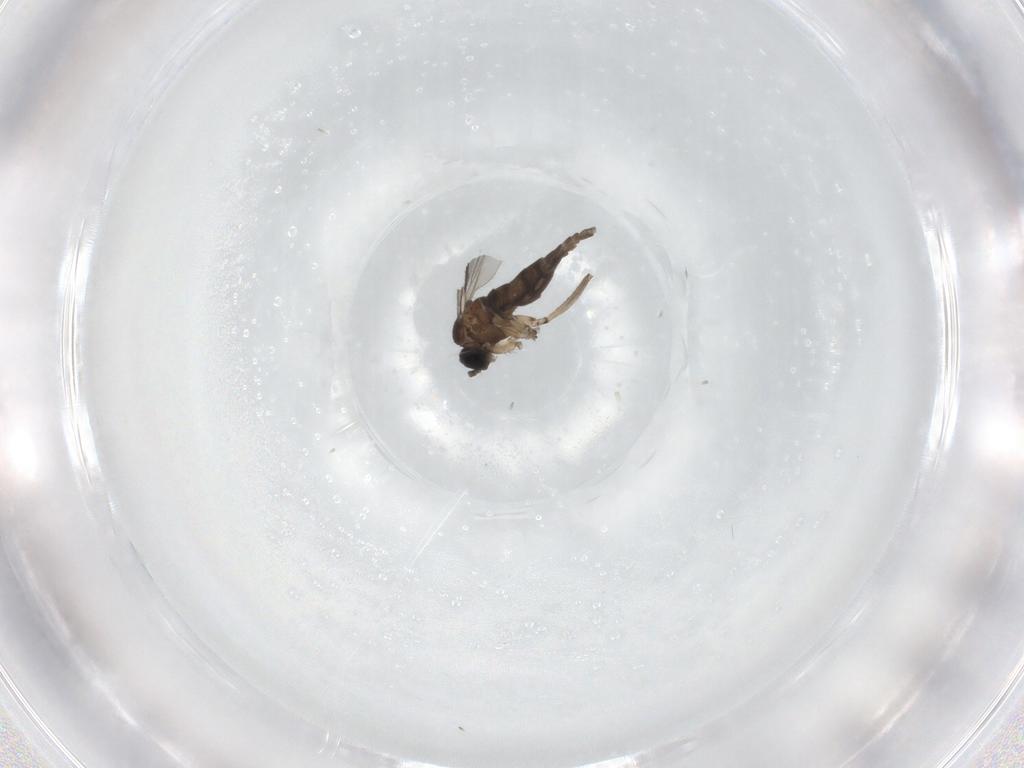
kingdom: Animalia
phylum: Arthropoda
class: Insecta
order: Diptera
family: Sciaridae
